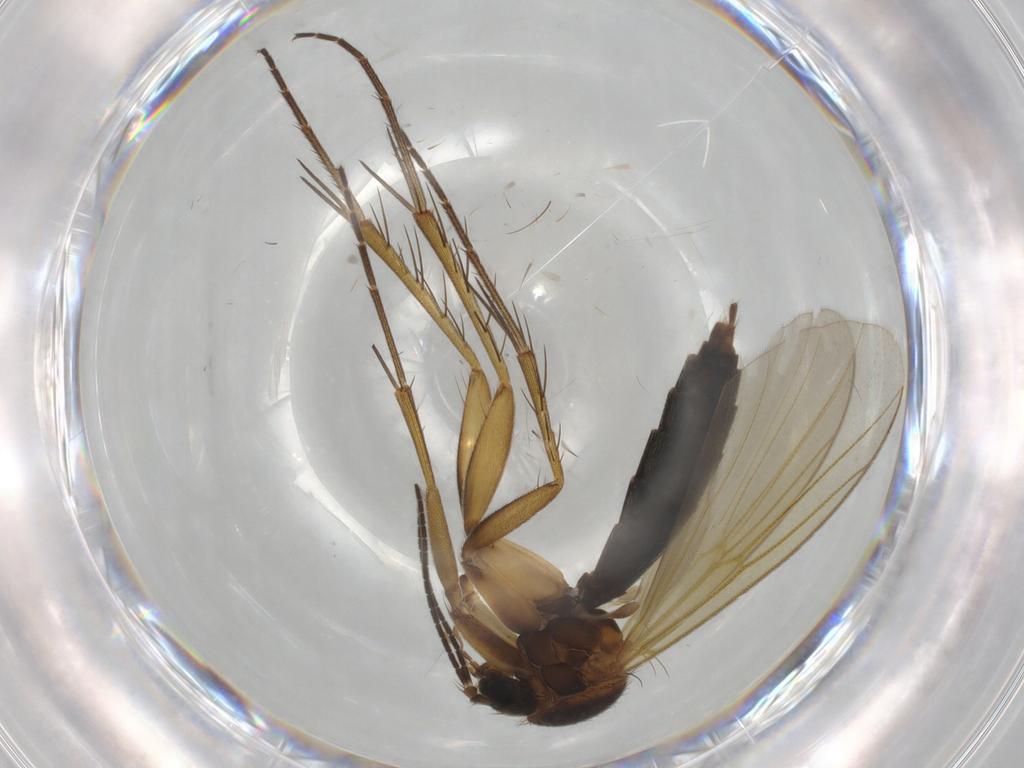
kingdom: Animalia
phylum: Arthropoda
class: Insecta
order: Diptera
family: Mycetophilidae
